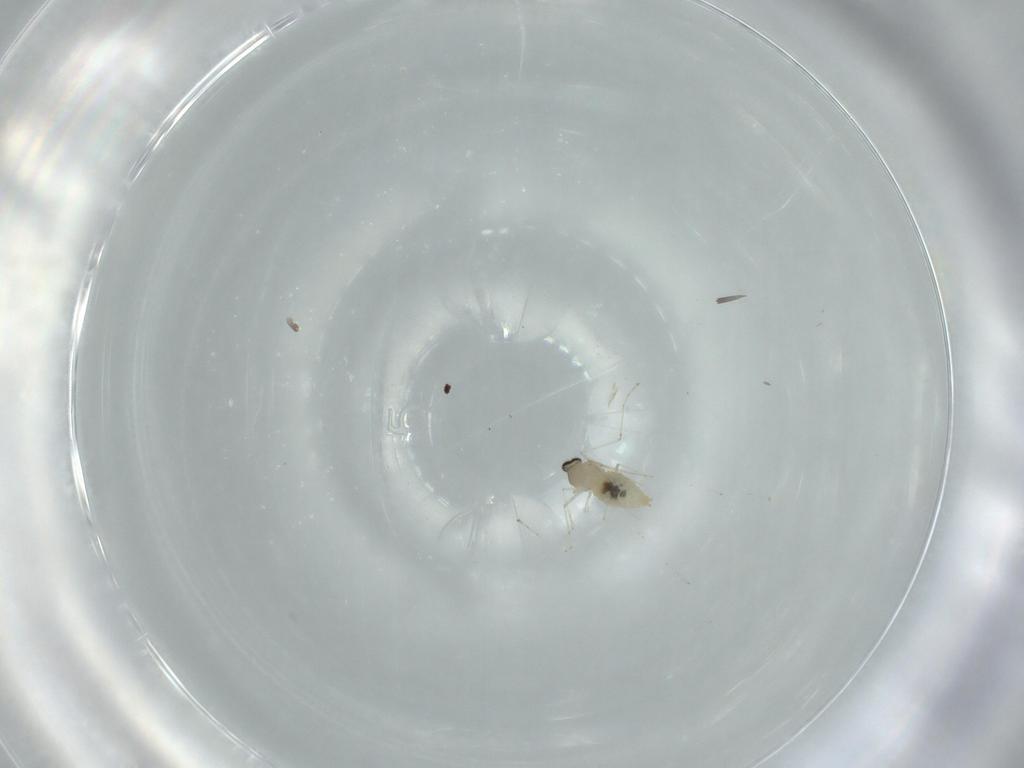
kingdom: Animalia
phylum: Arthropoda
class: Insecta
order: Diptera
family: Cecidomyiidae
